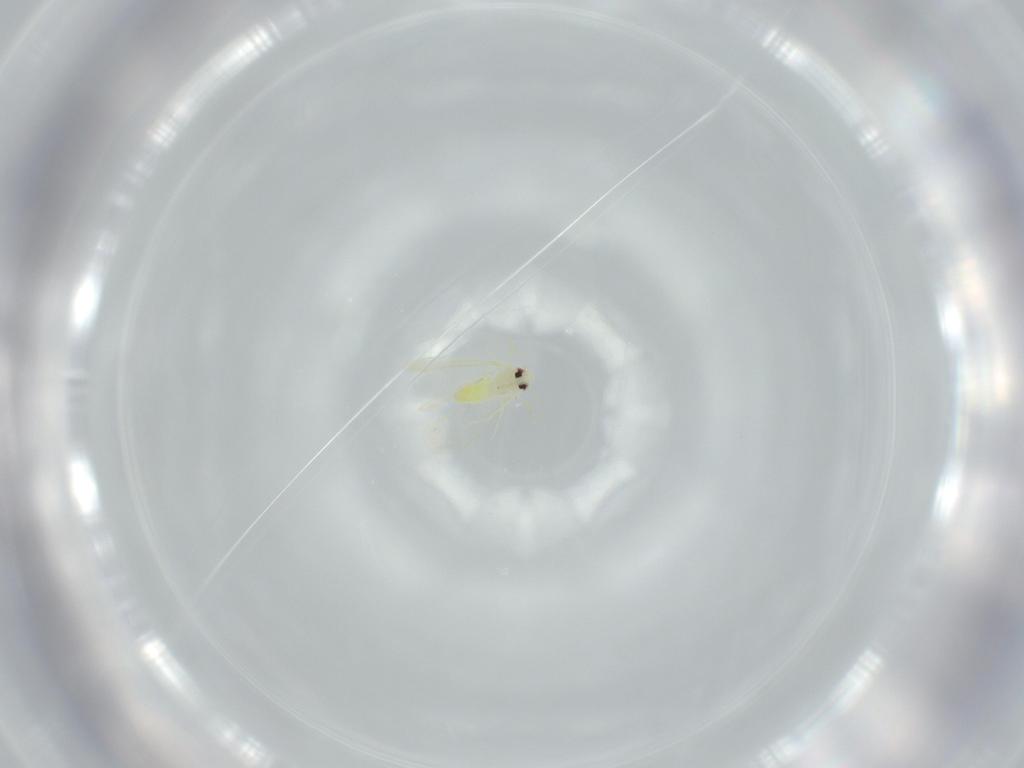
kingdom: Animalia
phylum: Arthropoda
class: Insecta
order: Hemiptera
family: Aleyrodidae
